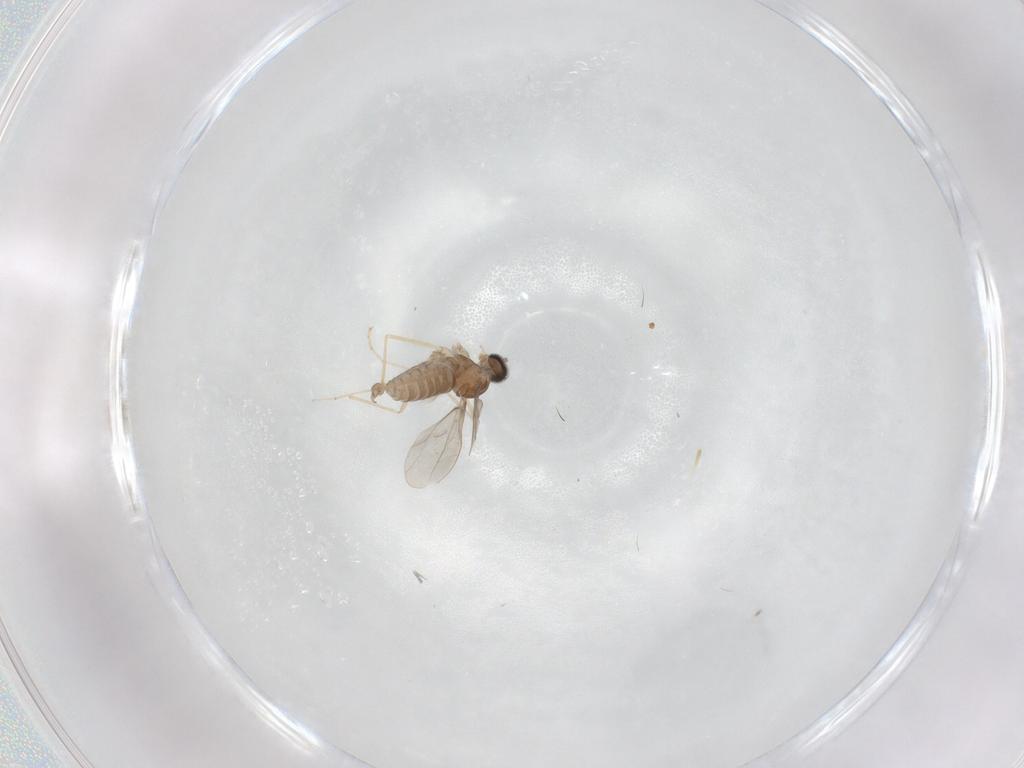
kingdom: Animalia
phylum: Arthropoda
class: Insecta
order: Diptera
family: Cecidomyiidae
